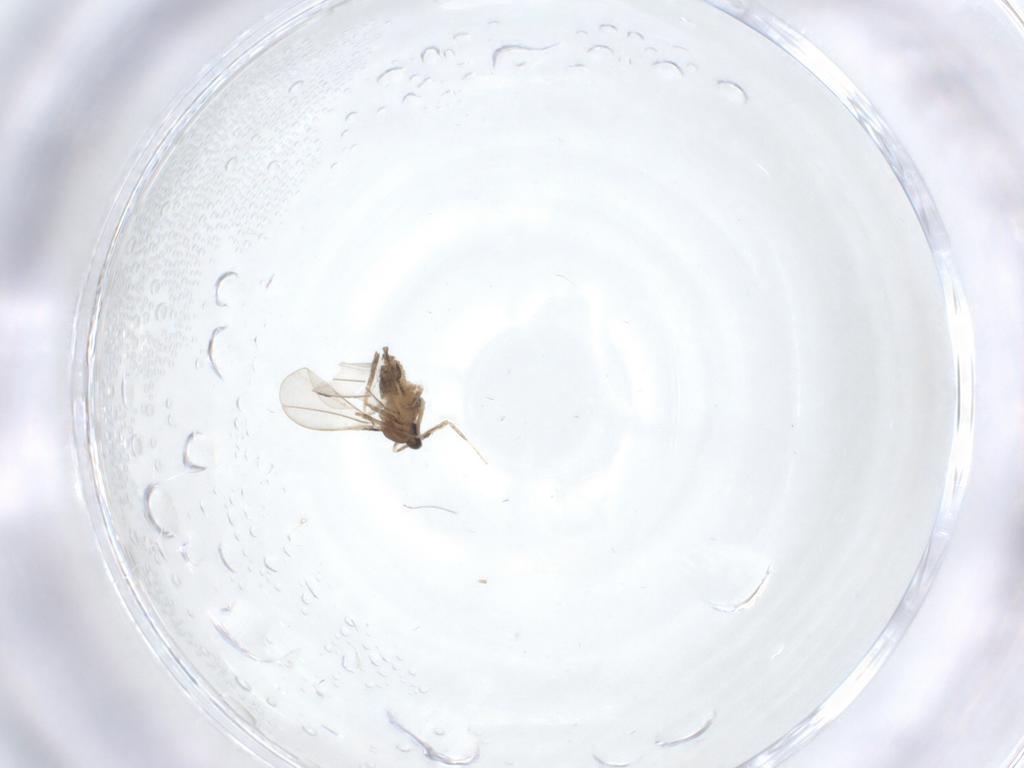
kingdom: Animalia
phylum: Arthropoda
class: Insecta
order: Diptera
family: Cecidomyiidae
